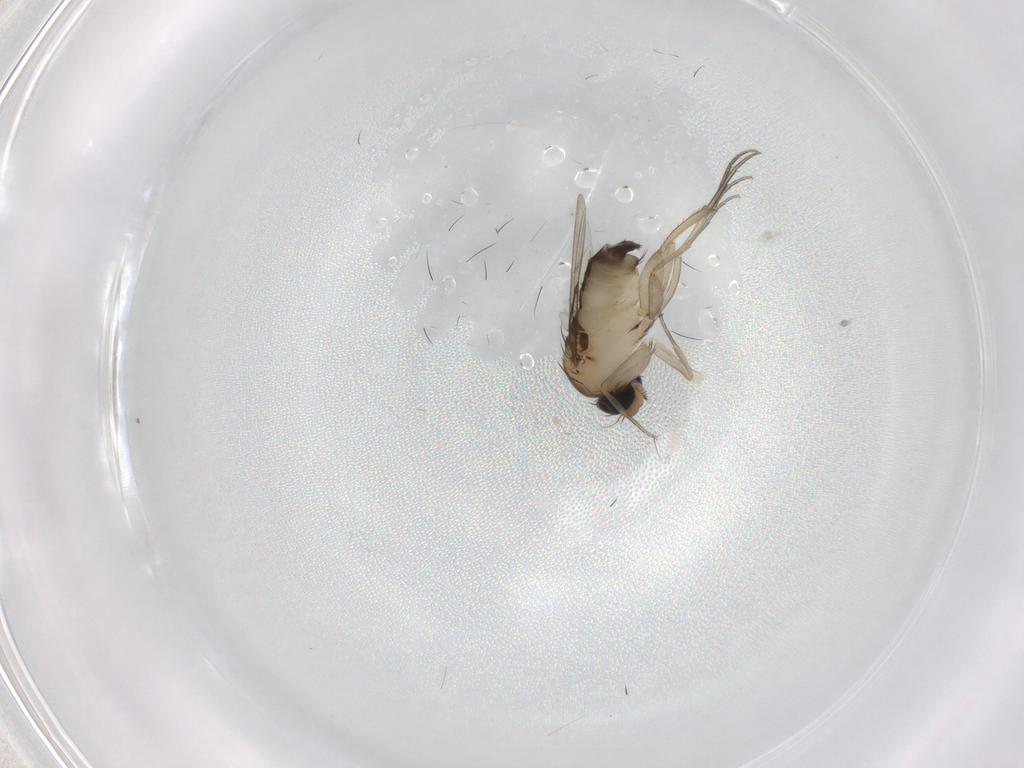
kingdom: Animalia
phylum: Arthropoda
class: Insecta
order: Diptera
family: Phoridae
